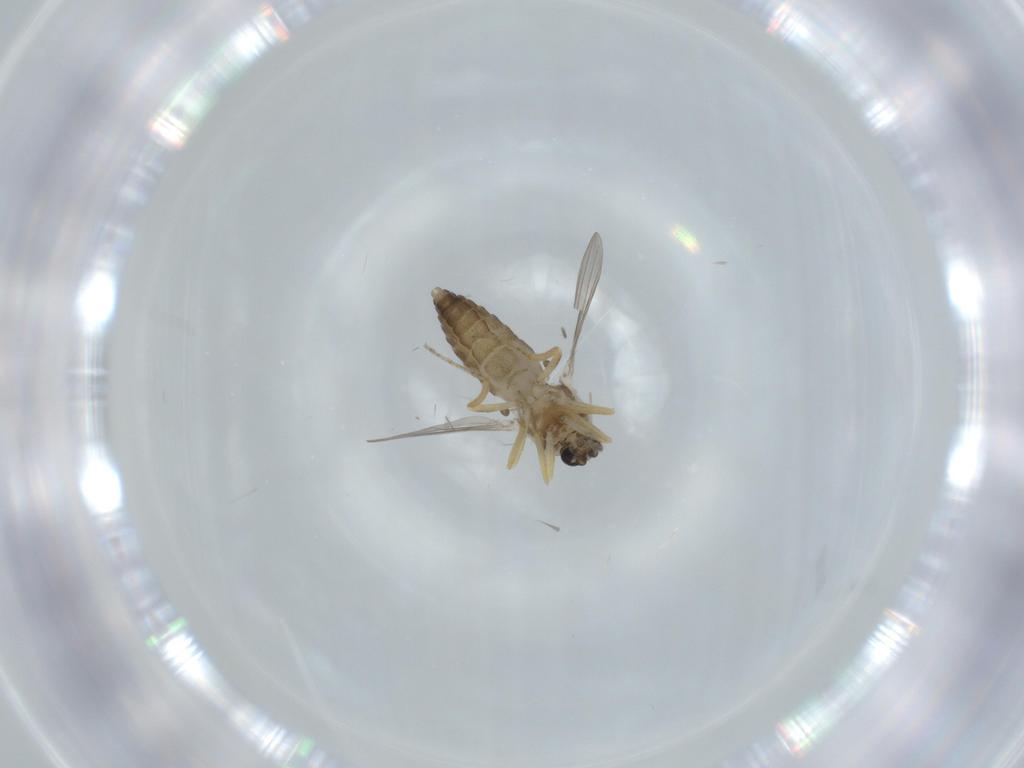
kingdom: Animalia
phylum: Arthropoda
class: Insecta
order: Diptera
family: Ceratopogonidae
